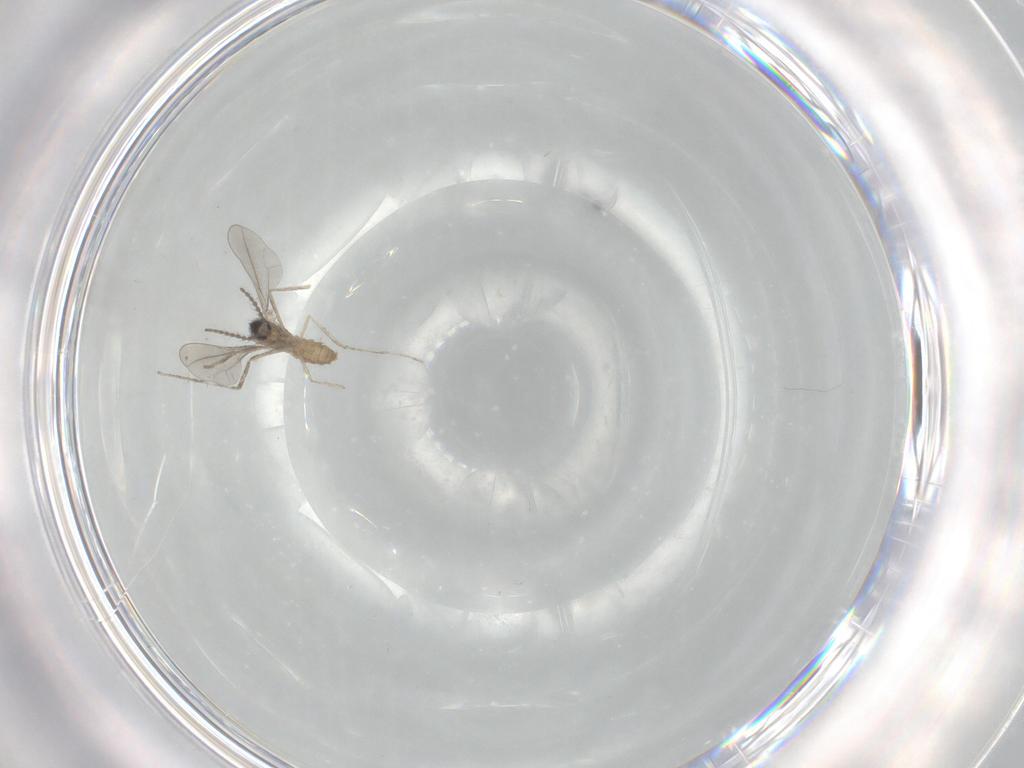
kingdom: Animalia
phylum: Arthropoda
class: Insecta
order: Diptera
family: Cecidomyiidae
